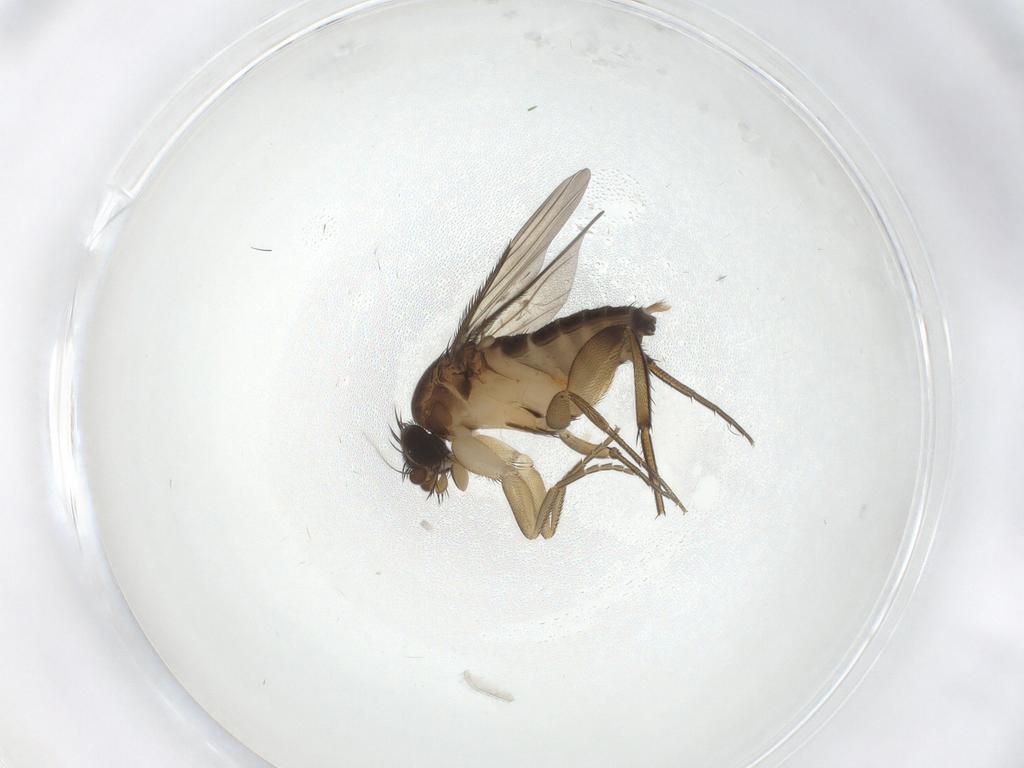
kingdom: Animalia
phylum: Arthropoda
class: Insecta
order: Diptera
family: Phoridae
